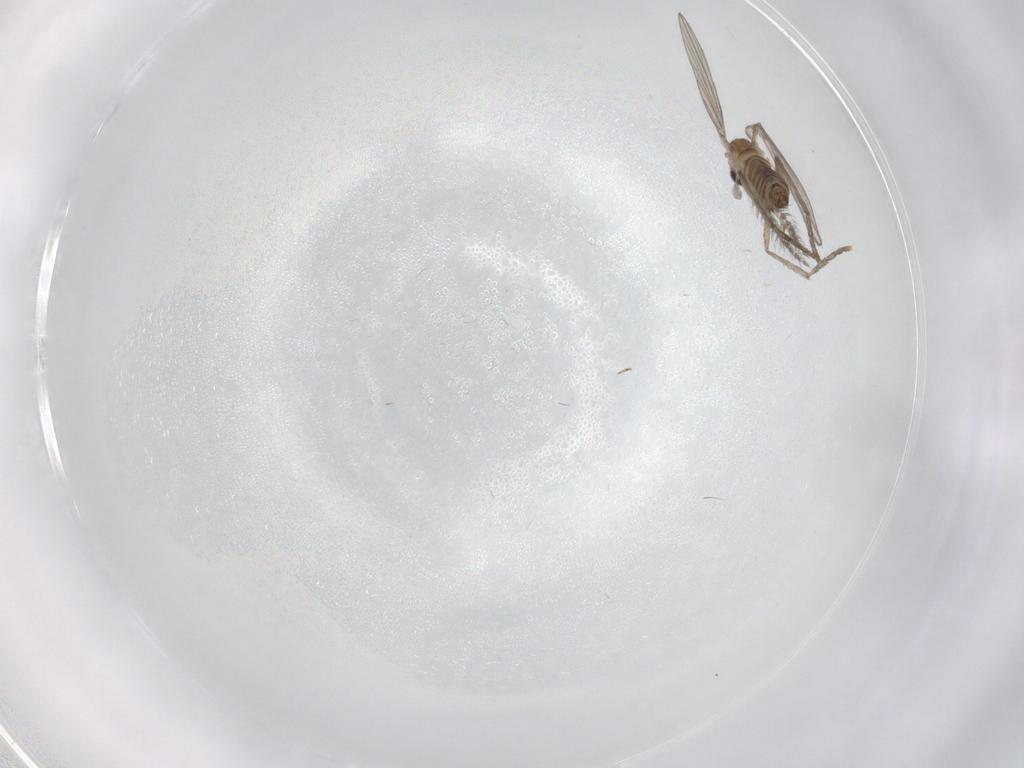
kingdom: Animalia
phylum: Arthropoda
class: Insecta
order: Diptera
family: Psychodidae
